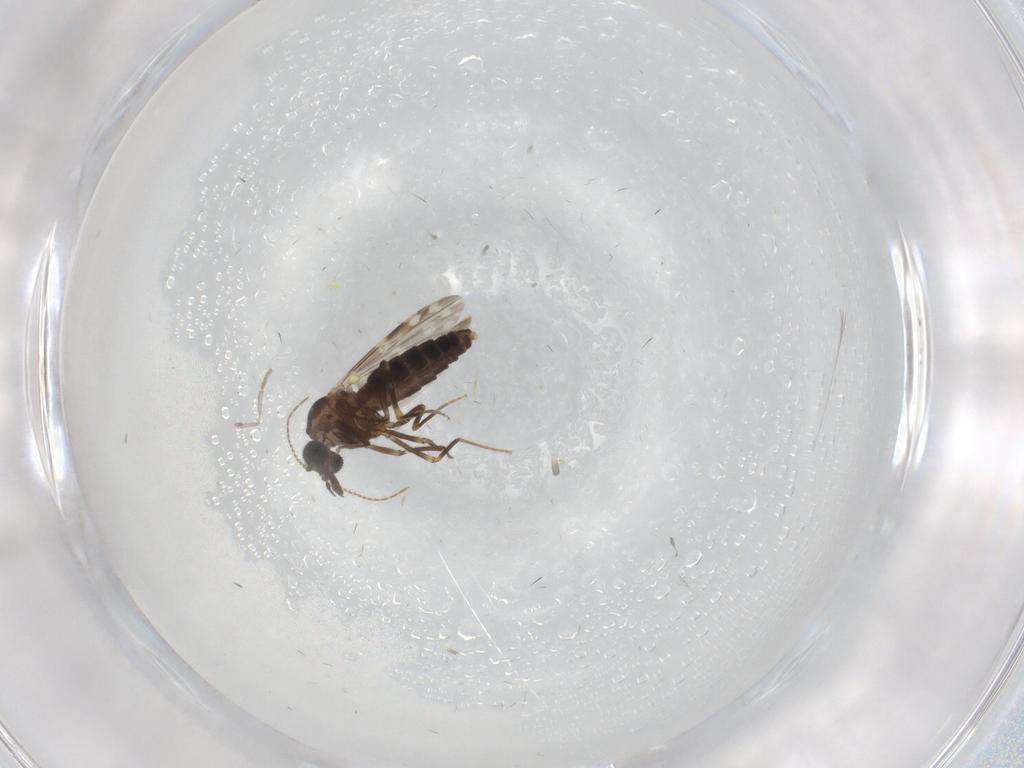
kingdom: Animalia
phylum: Arthropoda
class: Insecta
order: Diptera
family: Ceratopogonidae
